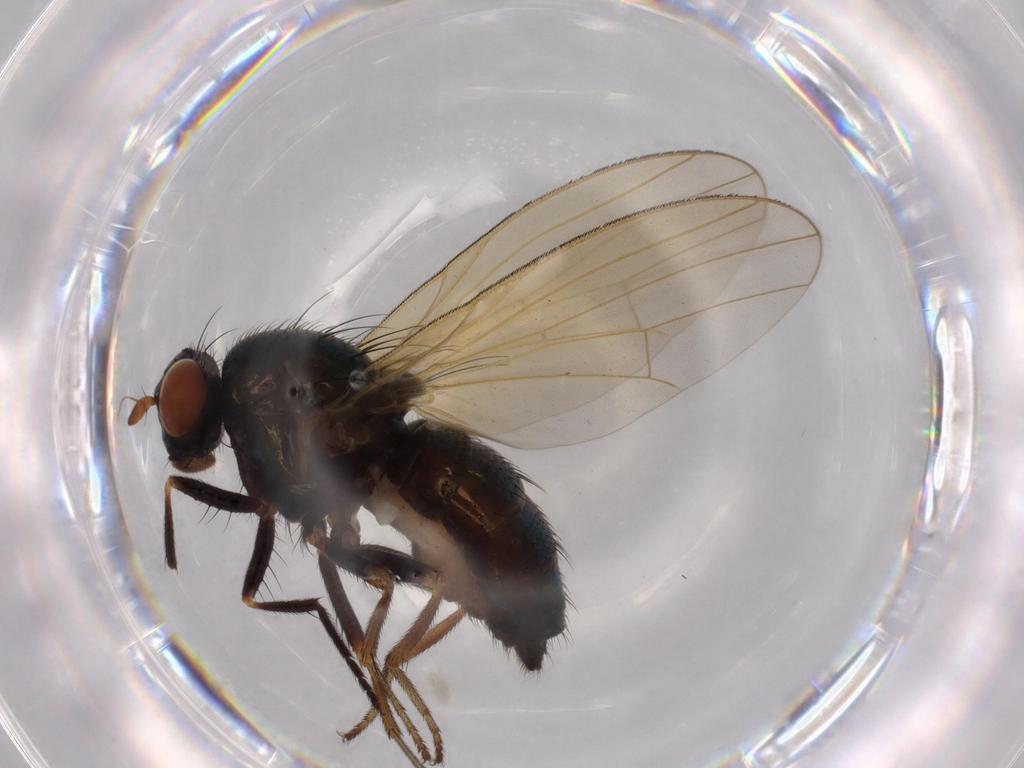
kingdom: Animalia
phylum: Arthropoda
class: Insecta
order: Diptera
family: Lauxaniidae
